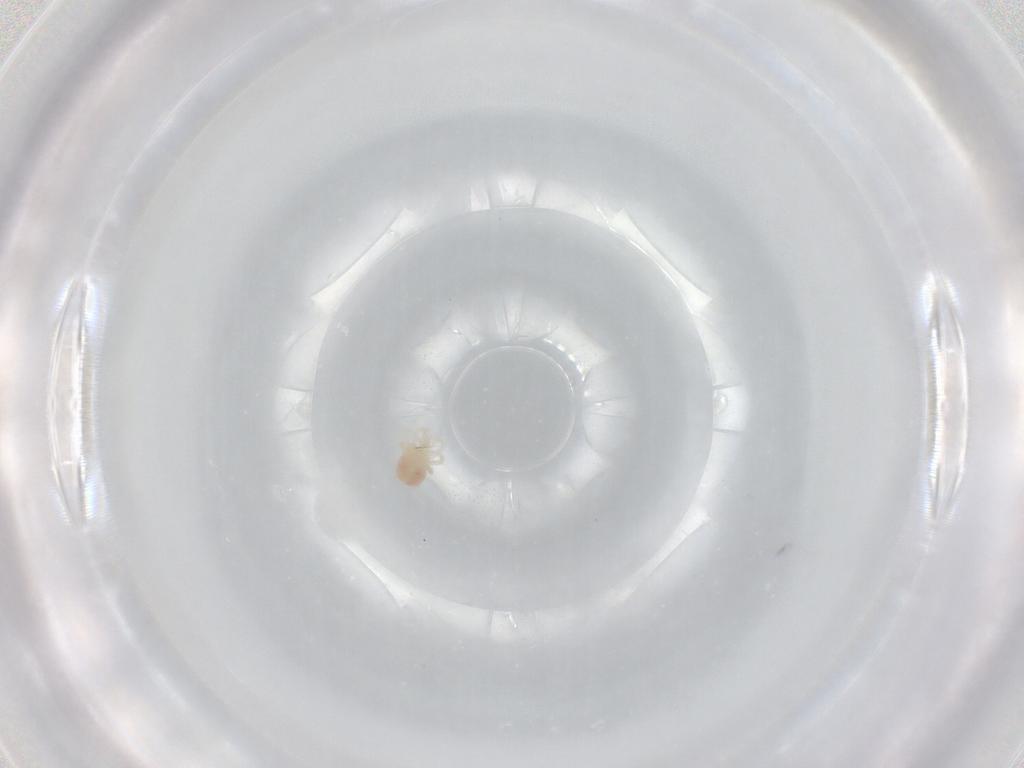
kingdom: Animalia
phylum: Arthropoda
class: Arachnida
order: Trombidiformes
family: Anystidae
